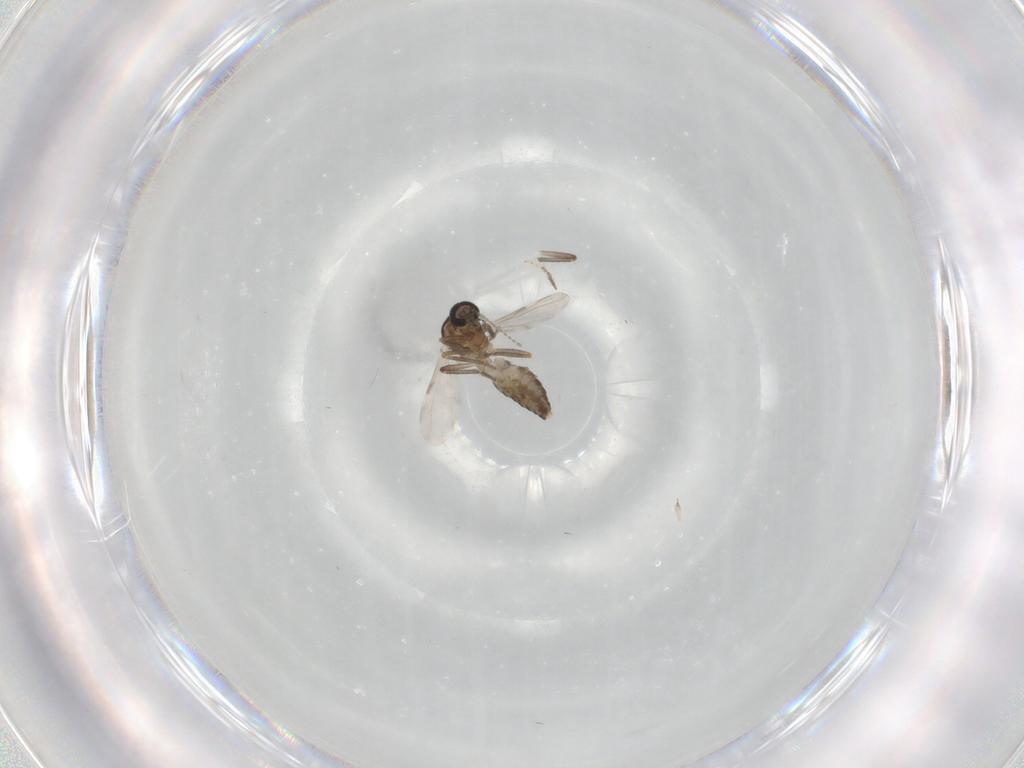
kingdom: Animalia
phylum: Arthropoda
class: Insecta
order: Diptera
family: Ceratopogonidae
